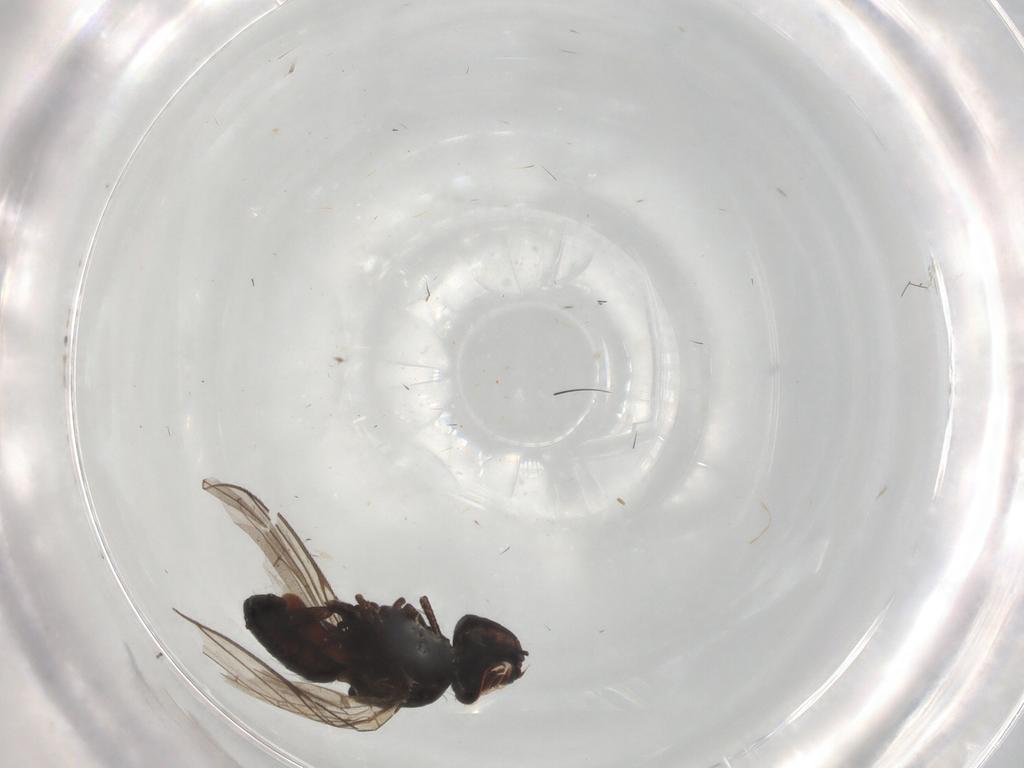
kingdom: Animalia
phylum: Arthropoda
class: Insecta
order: Diptera
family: Tachinidae
